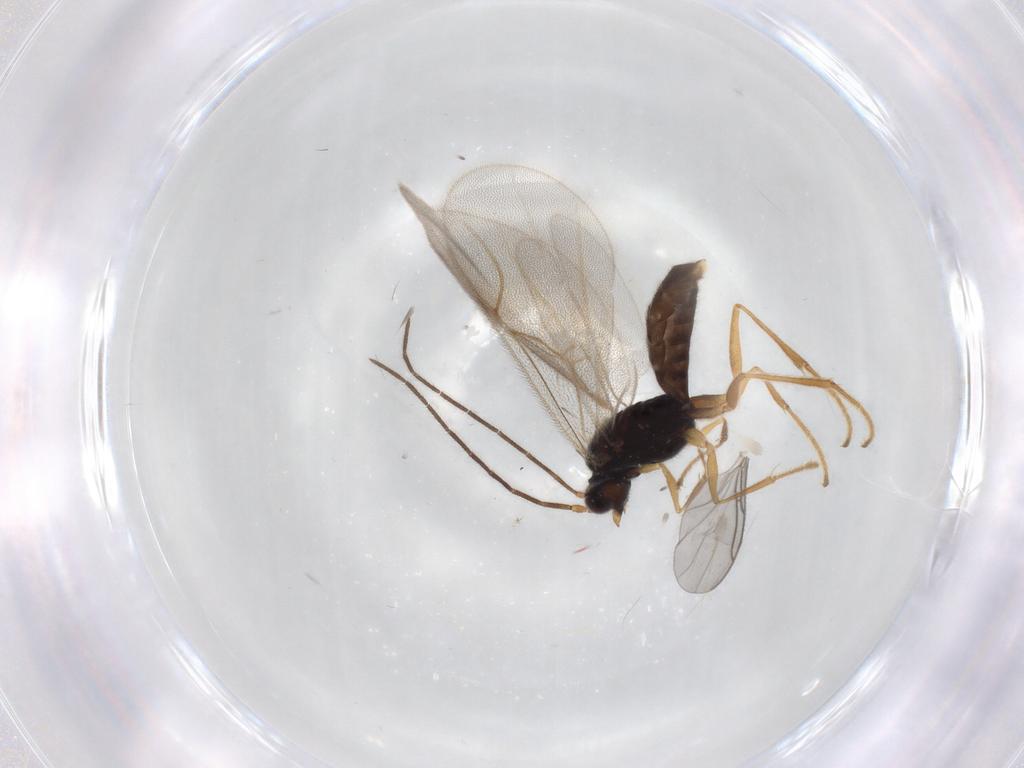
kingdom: Animalia
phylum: Arthropoda
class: Insecta
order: Hymenoptera
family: Dryinidae
